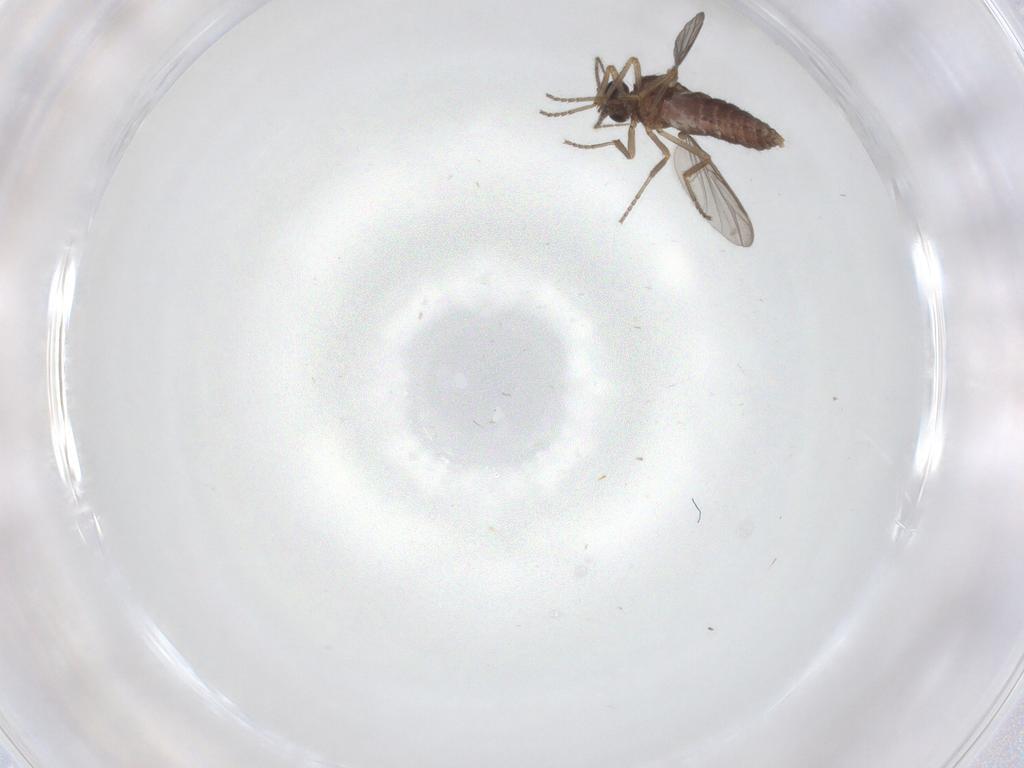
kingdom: Animalia
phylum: Arthropoda
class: Insecta
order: Diptera
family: Ceratopogonidae
